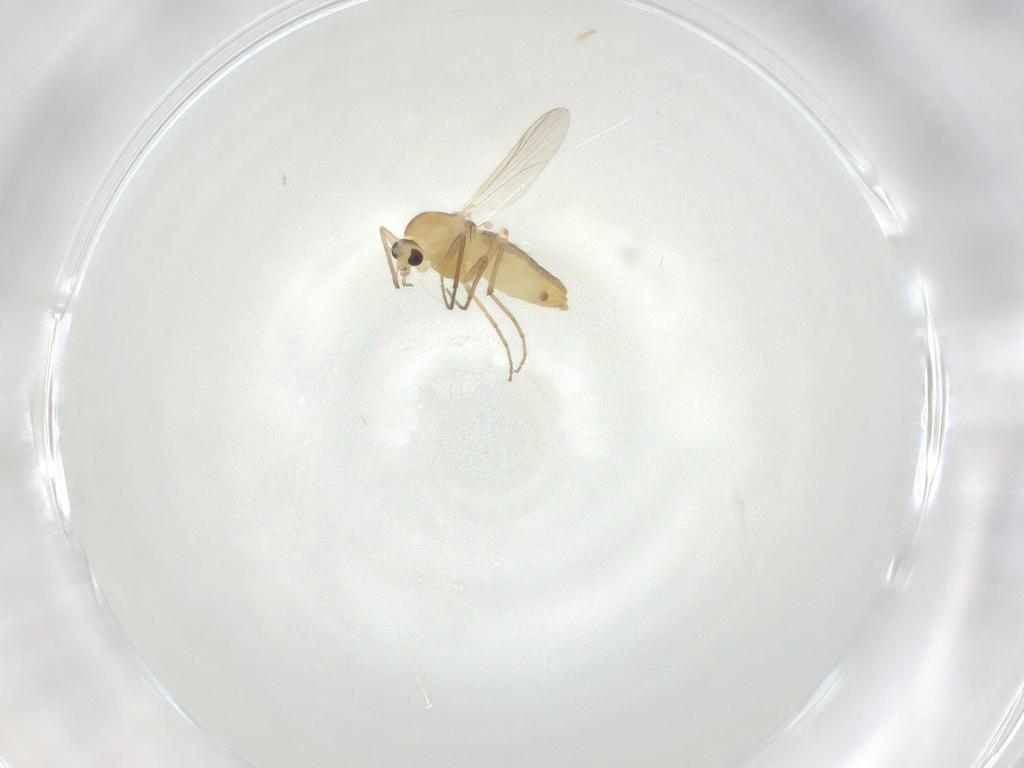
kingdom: Animalia
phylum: Arthropoda
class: Insecta
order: Diptera
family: Chironomidae
